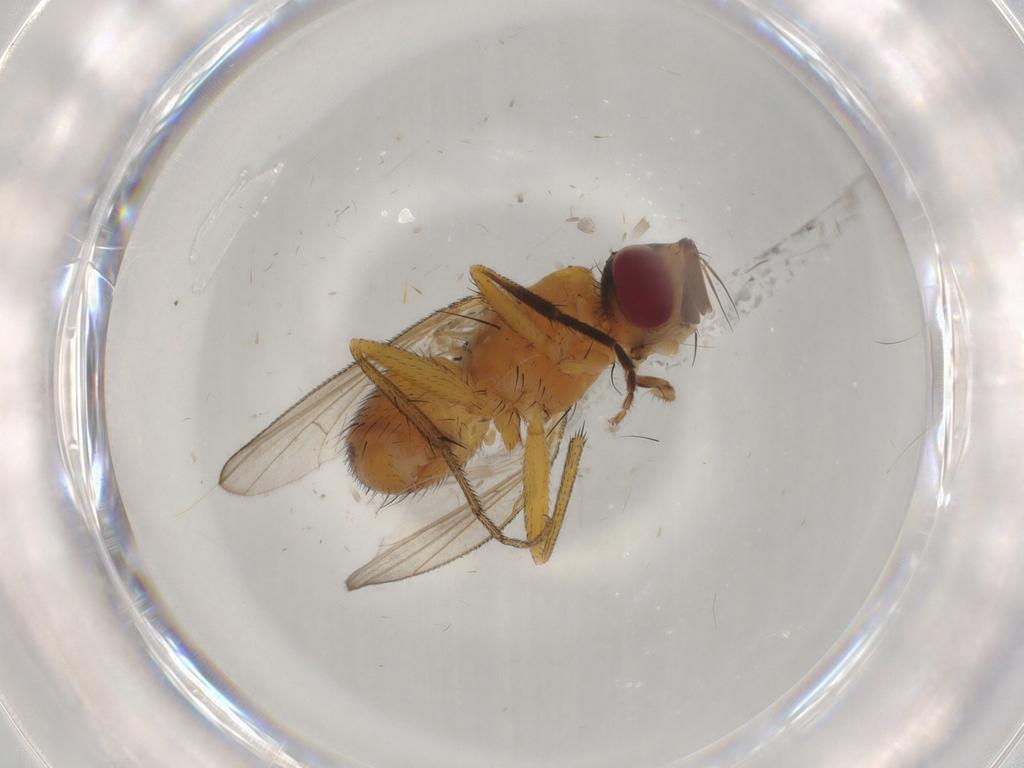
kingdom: Animalia
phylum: Arthropoda
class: Insecta
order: Diptera
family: Muscidae
